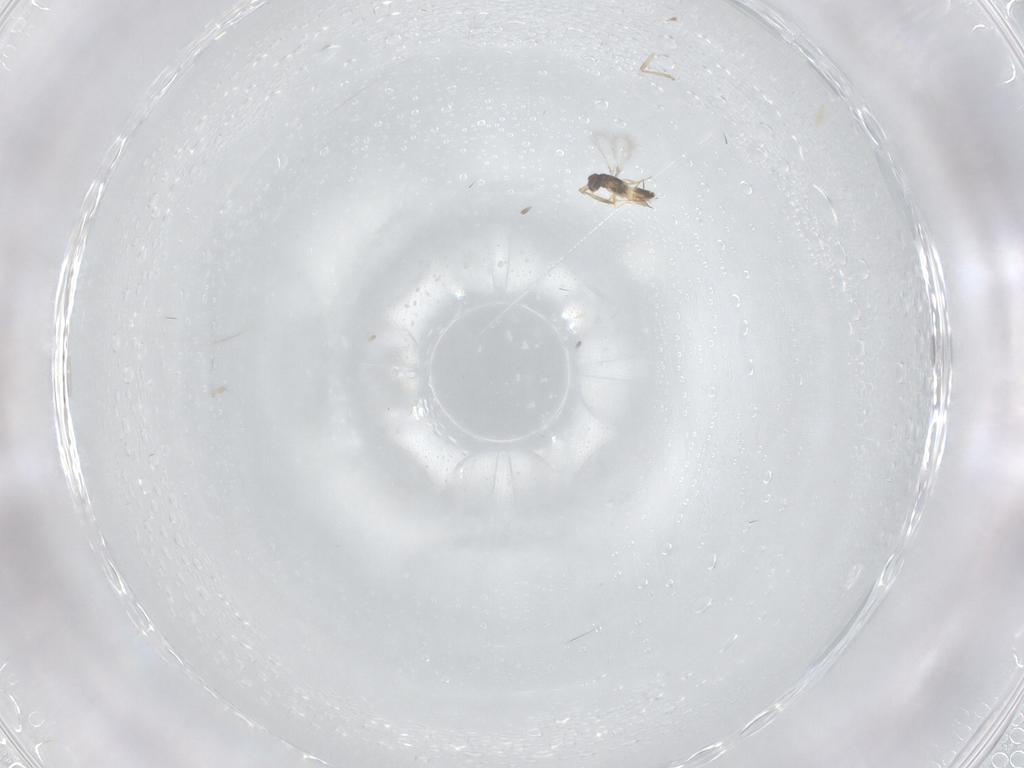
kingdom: Animalia
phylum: Arthropoda
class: Insecta
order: Hymenoptera
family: Mymaridae
